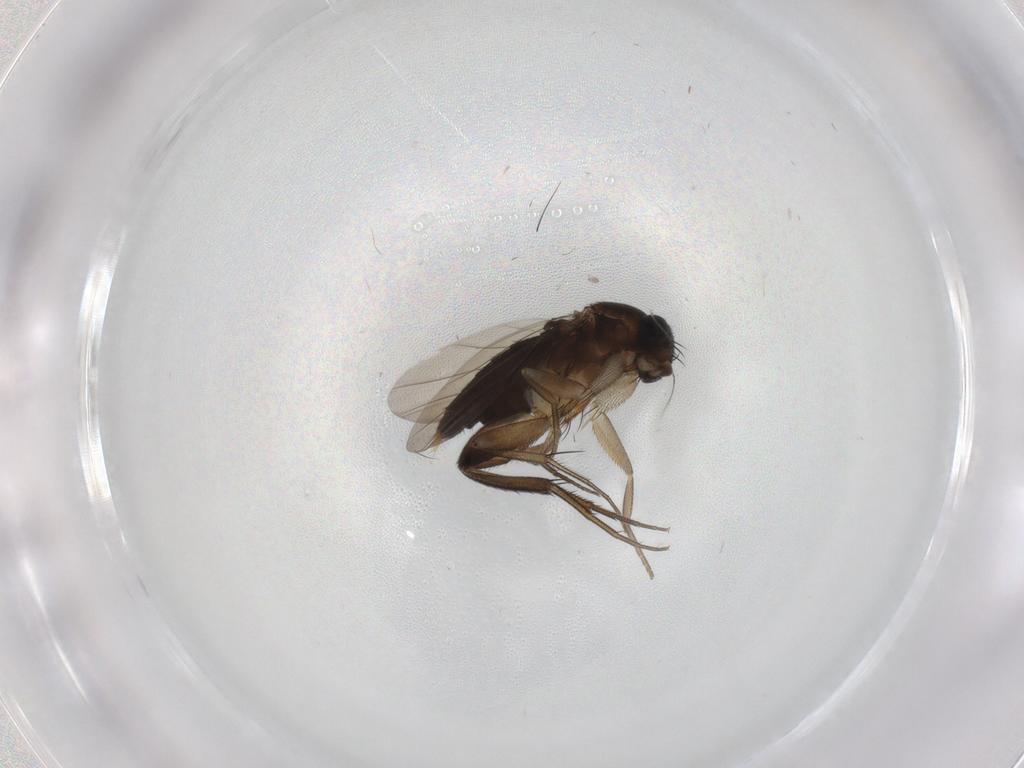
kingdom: Animalia
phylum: Arthropoda
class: Insecta
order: Diptera
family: Phoridae
